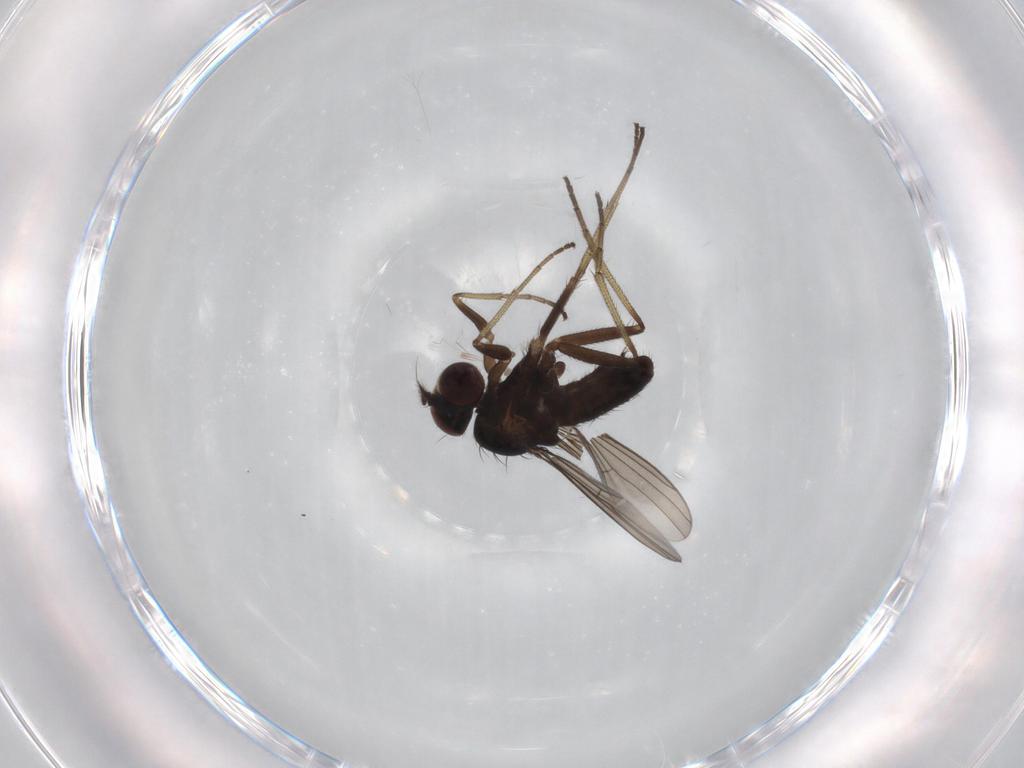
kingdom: Animalia
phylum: Arthropoda
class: Insecta
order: Diptera
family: Dolichopodidae
